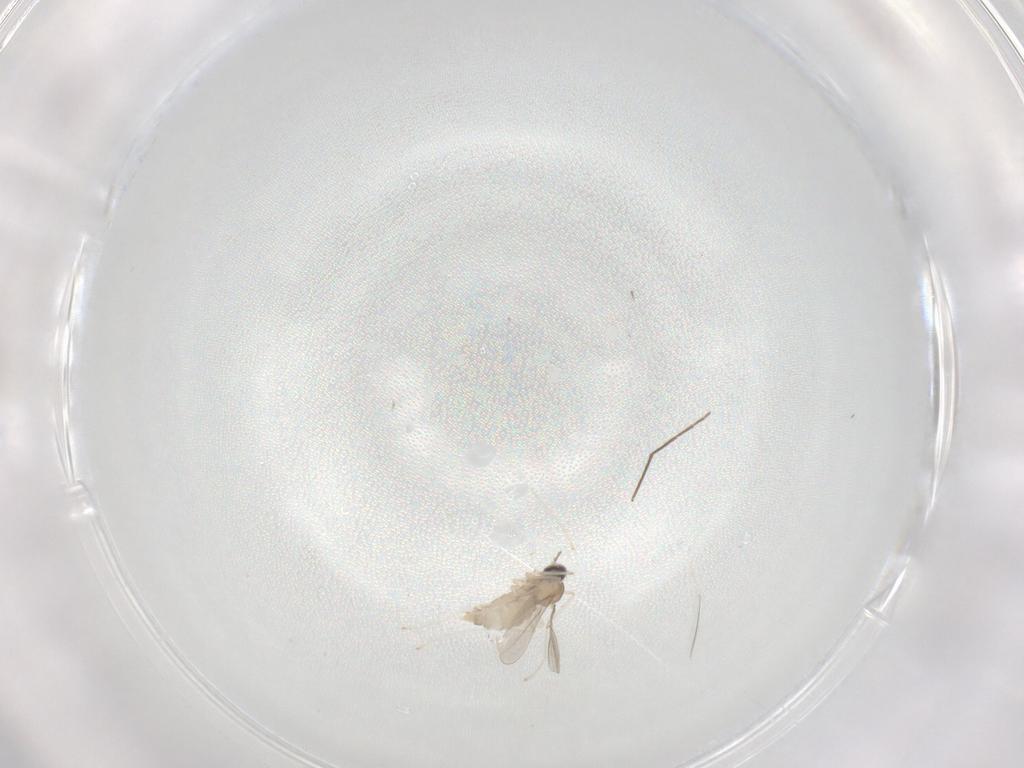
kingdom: Animalia
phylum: Arthropoda
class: Insecta
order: Diptera
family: Cecidomyiidae
